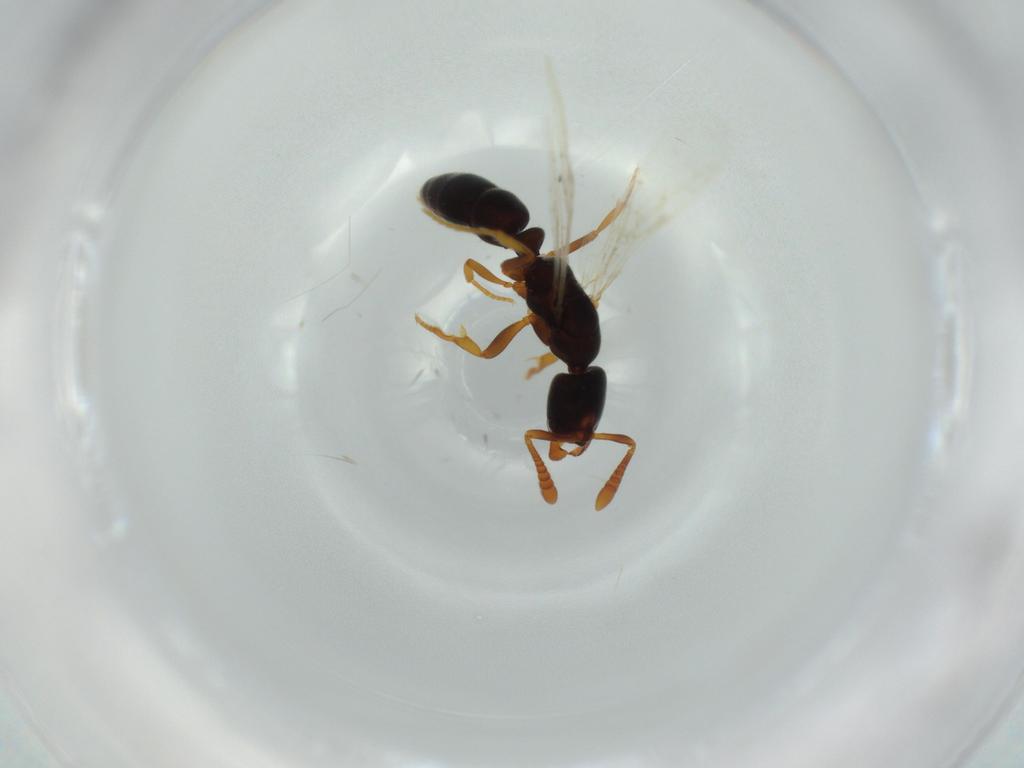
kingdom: Animalia
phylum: Arthropoda
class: Insecta
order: Hymenoptera
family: Formicidae
